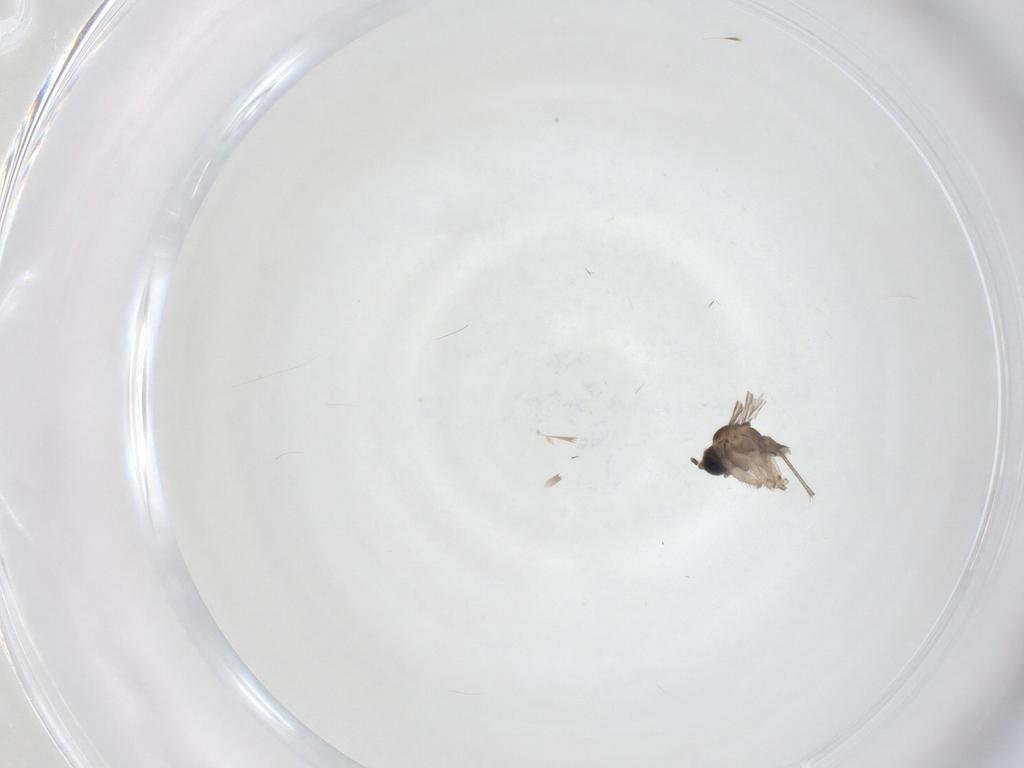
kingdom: Animalia
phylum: Arthropoda
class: Insecta
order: Diptera
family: Sciaridae
